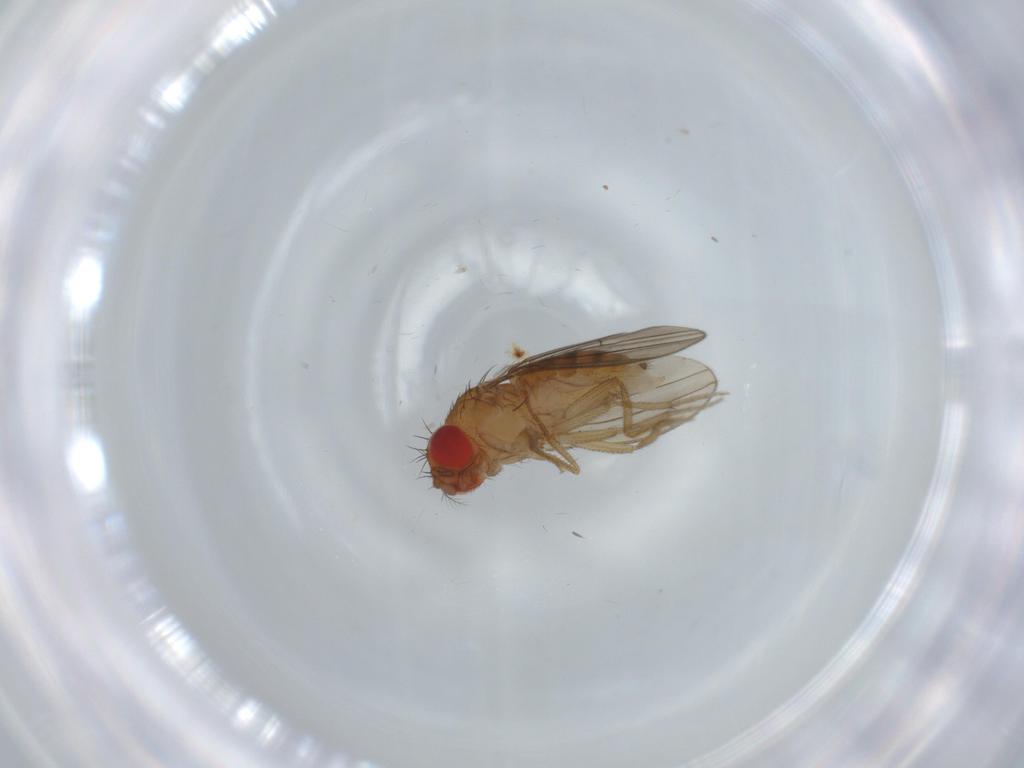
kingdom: Animalia
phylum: Arthropoda
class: Insecta
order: Diptera
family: Drosophilidae
